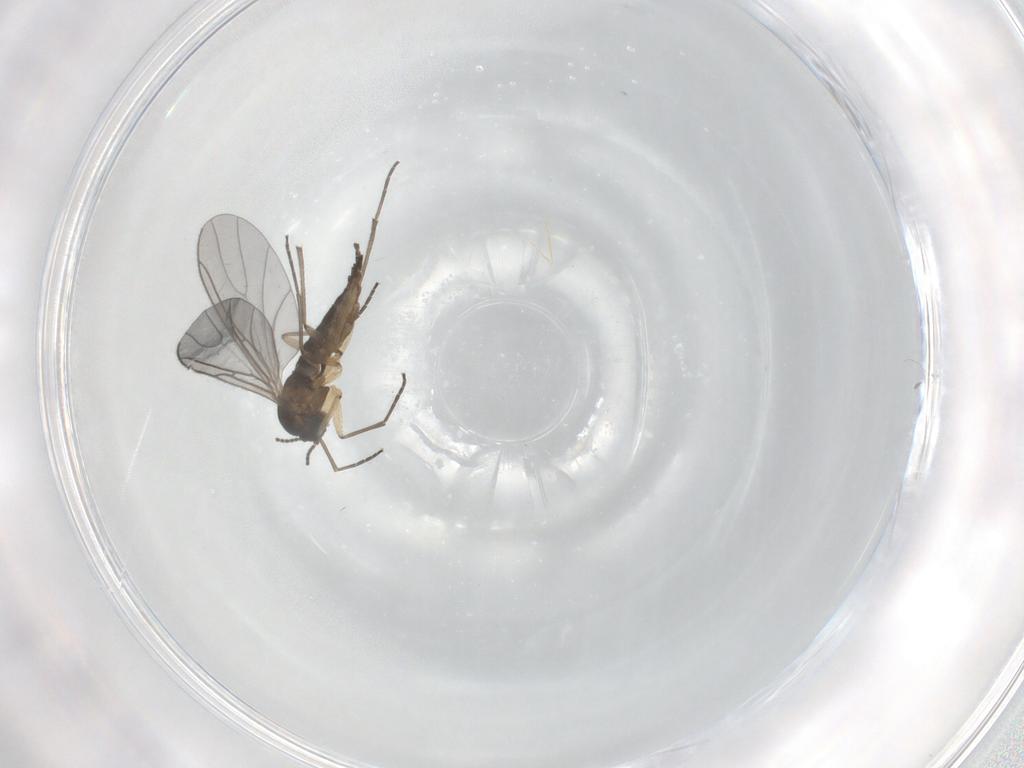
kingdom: Animalia
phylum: Arthropoda
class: Insecta
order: Diptera
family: Sciaridae
